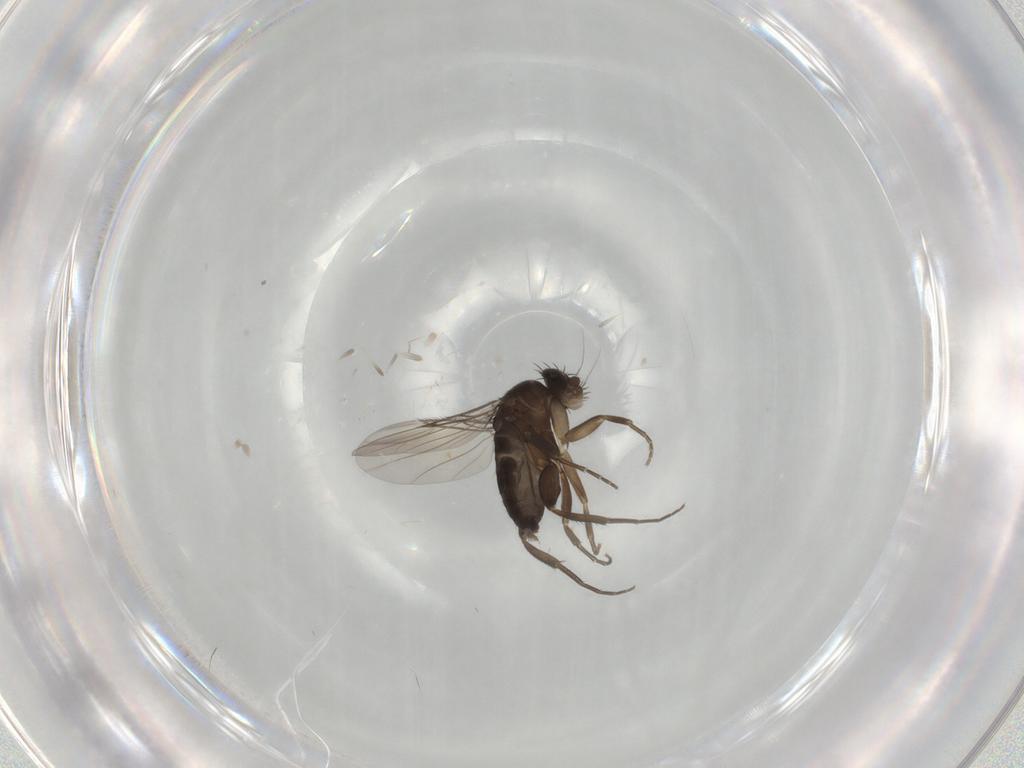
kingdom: Animalia
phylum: Arthropoda
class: Insecta
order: Diptera
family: Phoridae
